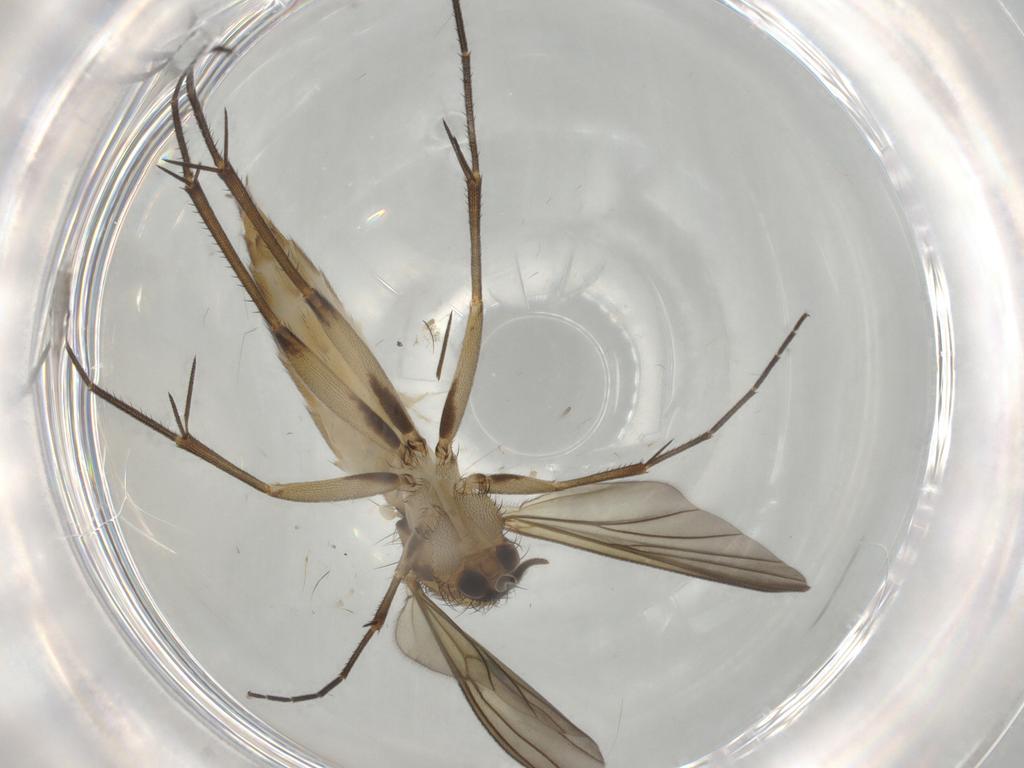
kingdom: Animalia
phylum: Arthropoda
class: Insecta
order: Diptera
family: Mycetophilidae
